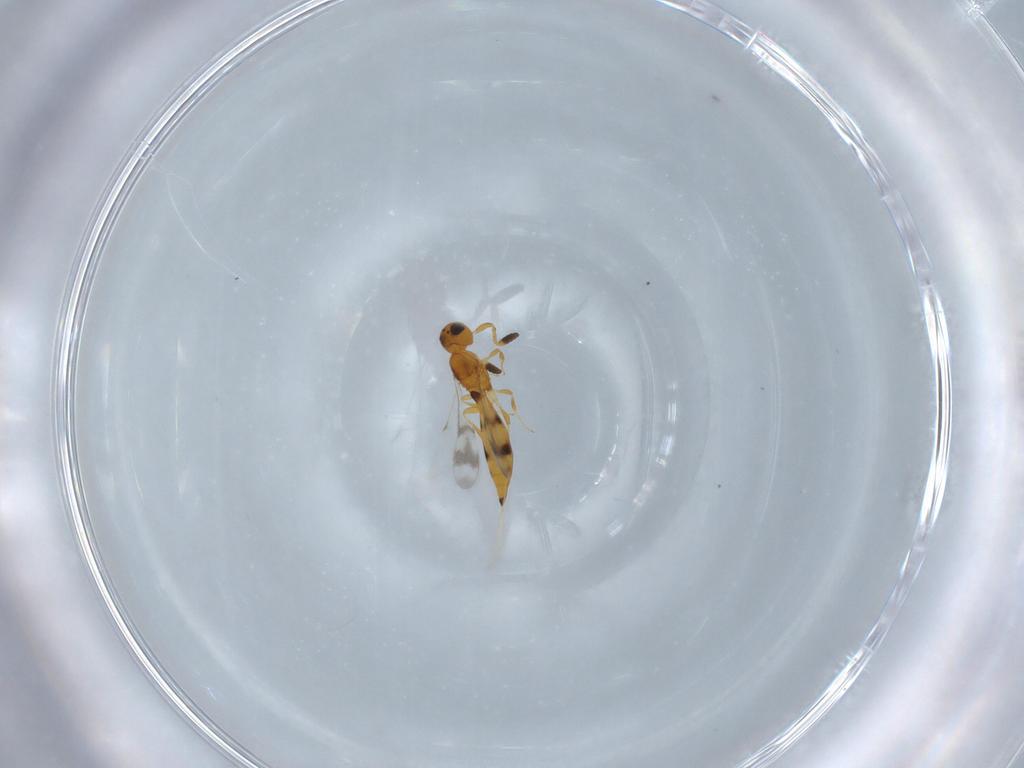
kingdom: Animalia
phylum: Arthropoda
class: Insecta
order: Hymenoptera
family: Scelionidae
